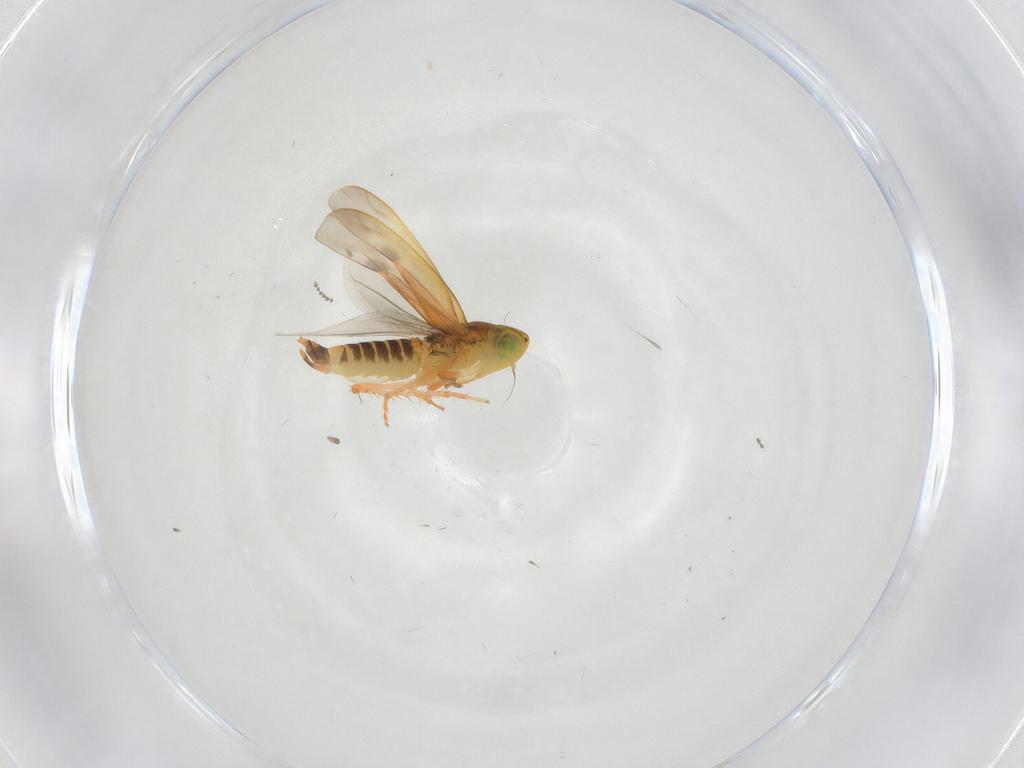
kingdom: Animalia
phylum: Arthropoda
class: Insecta
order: Hemiptera
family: Cicadellidae
